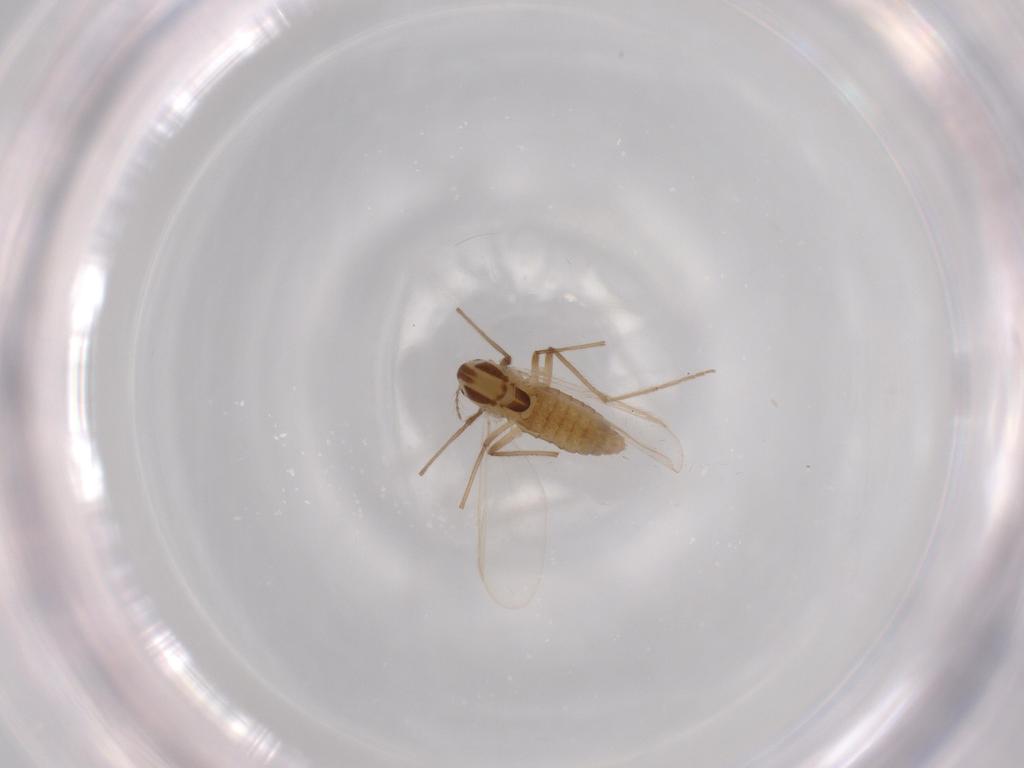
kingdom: Animalia
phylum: Arthropoda
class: Insecta
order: Diptera
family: Chironomidae
